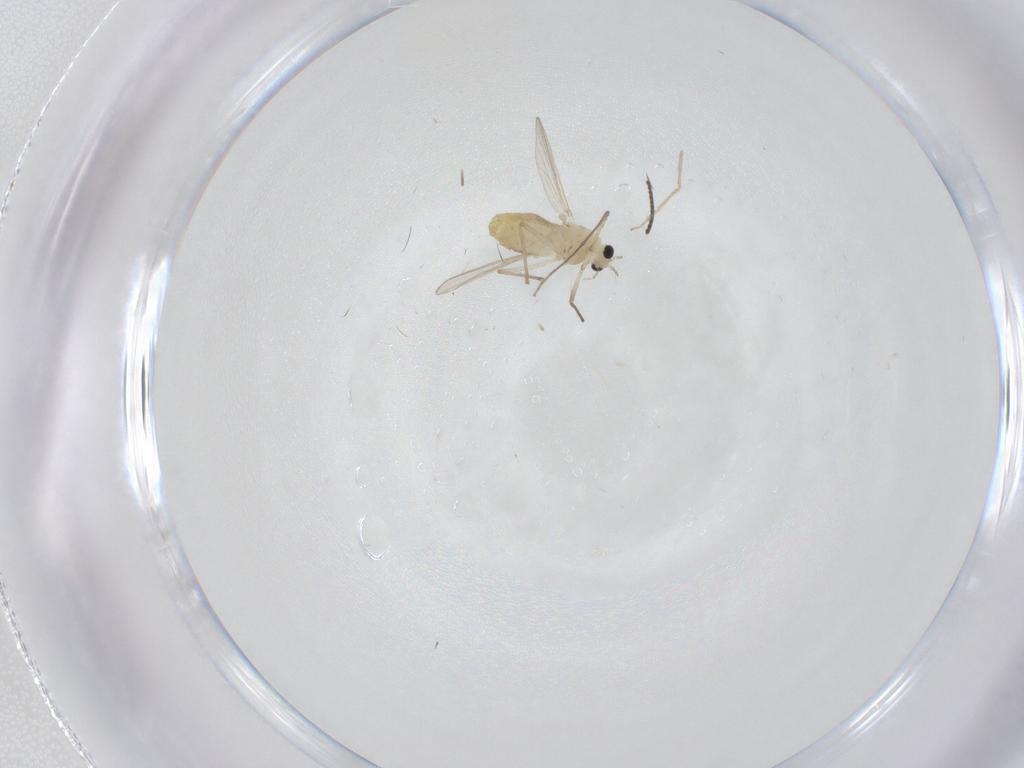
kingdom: Animalia
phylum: Arthropoda
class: Insecta
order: Diptera
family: Chironomidae
